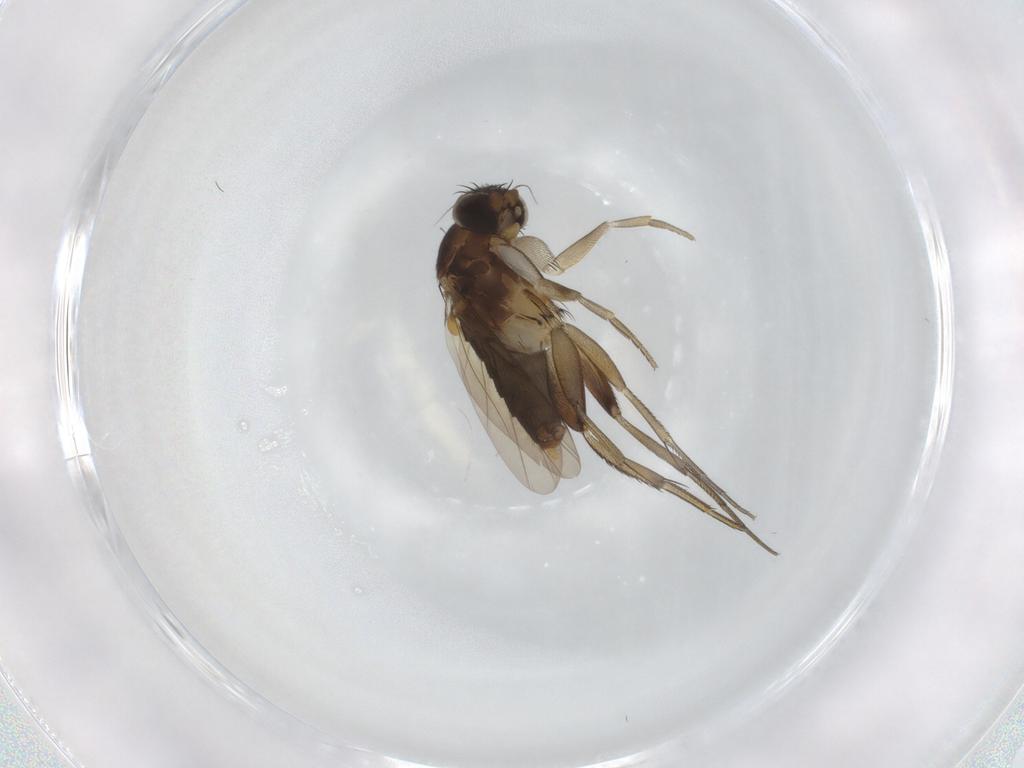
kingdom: Animalia
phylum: Arthropoda
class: Insecta
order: Diptera
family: Phoridae
